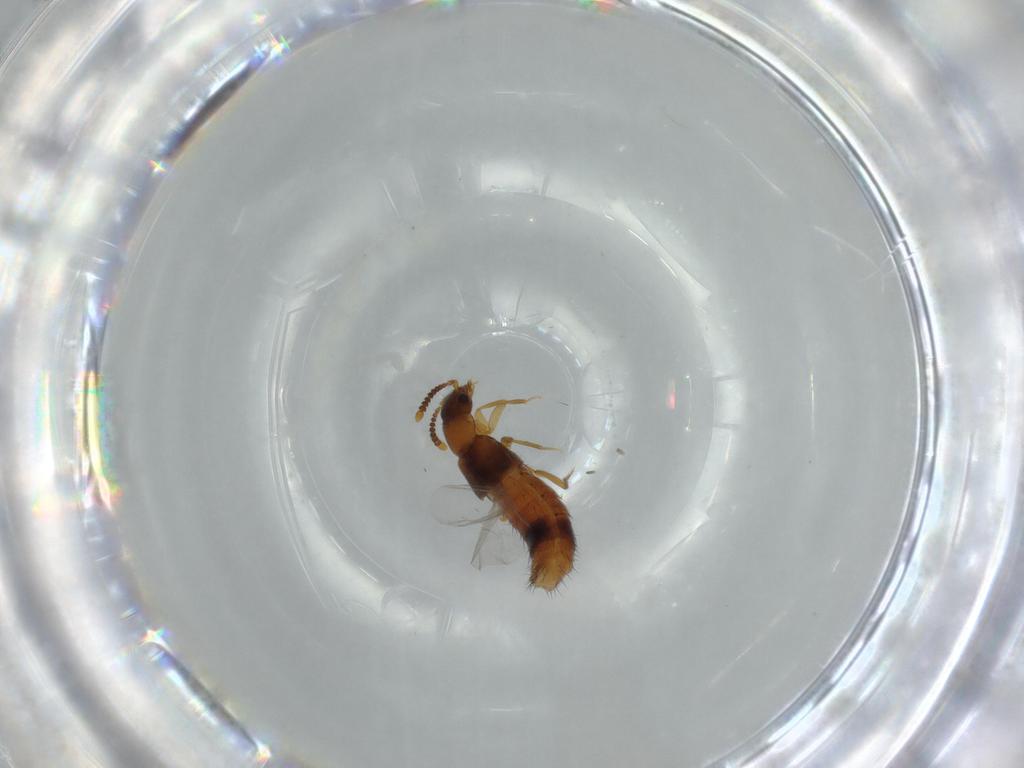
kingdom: Animalia
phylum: Arthropoda
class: Insecta
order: Coleoptera
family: Staphylinidae
